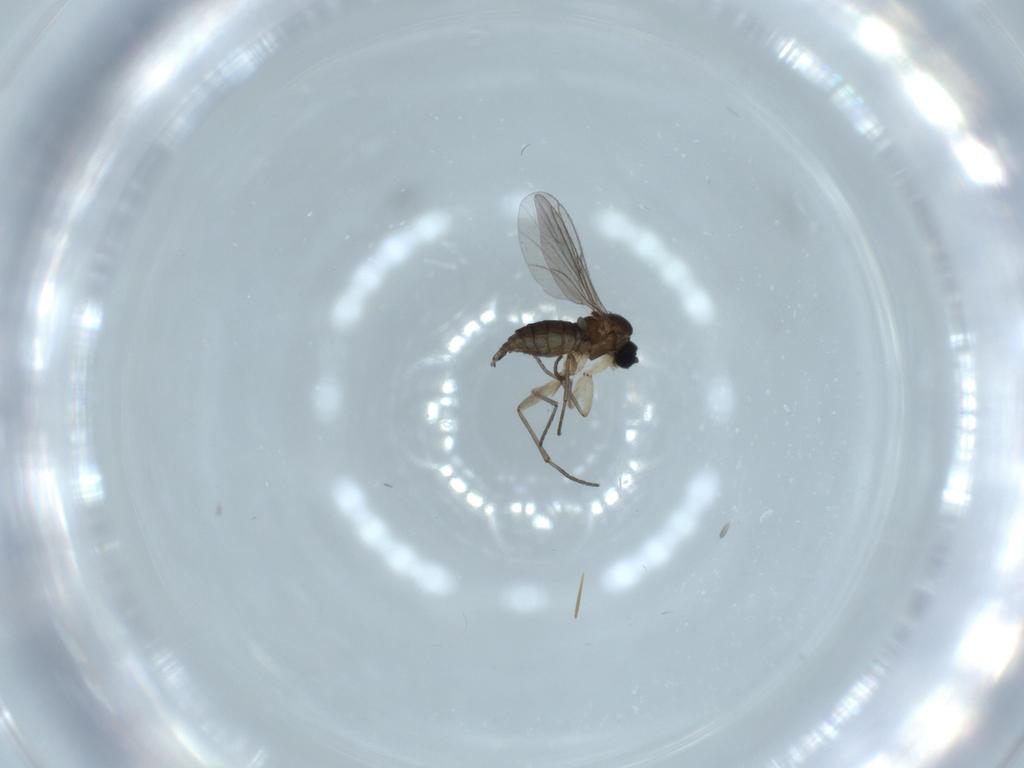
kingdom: Animalia
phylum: Arthropoda
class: Insecta
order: Diptera
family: Sciaridae
